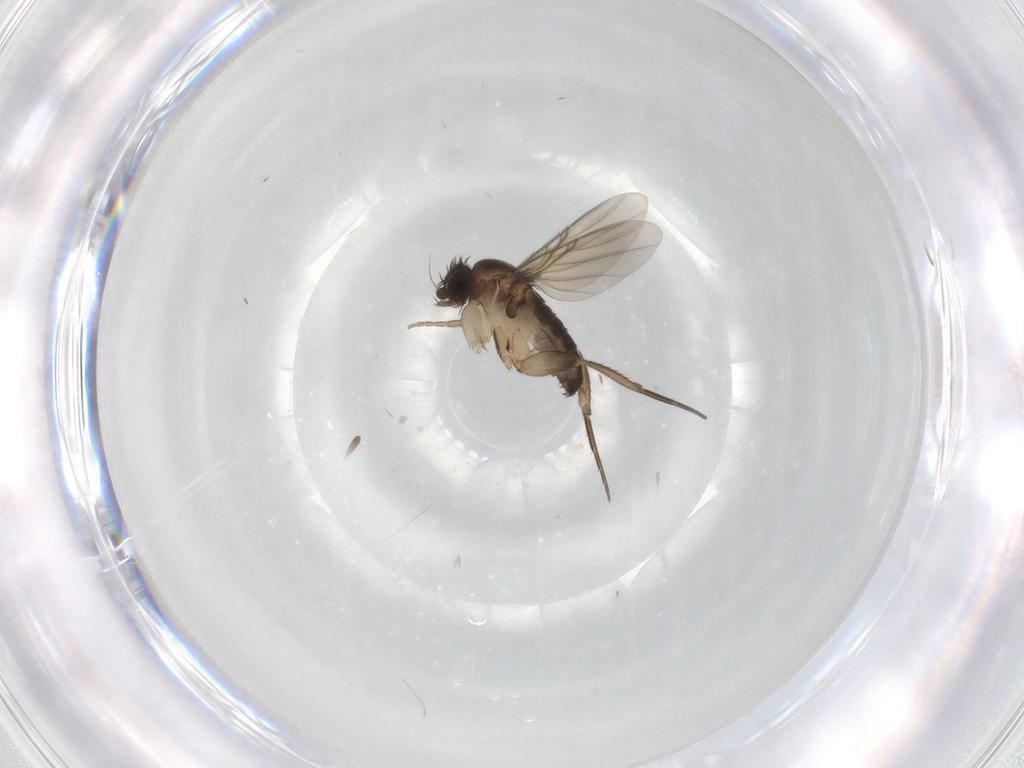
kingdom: Animalia
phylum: Arthropoda
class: Insecta
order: Diptera
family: Phoridae
